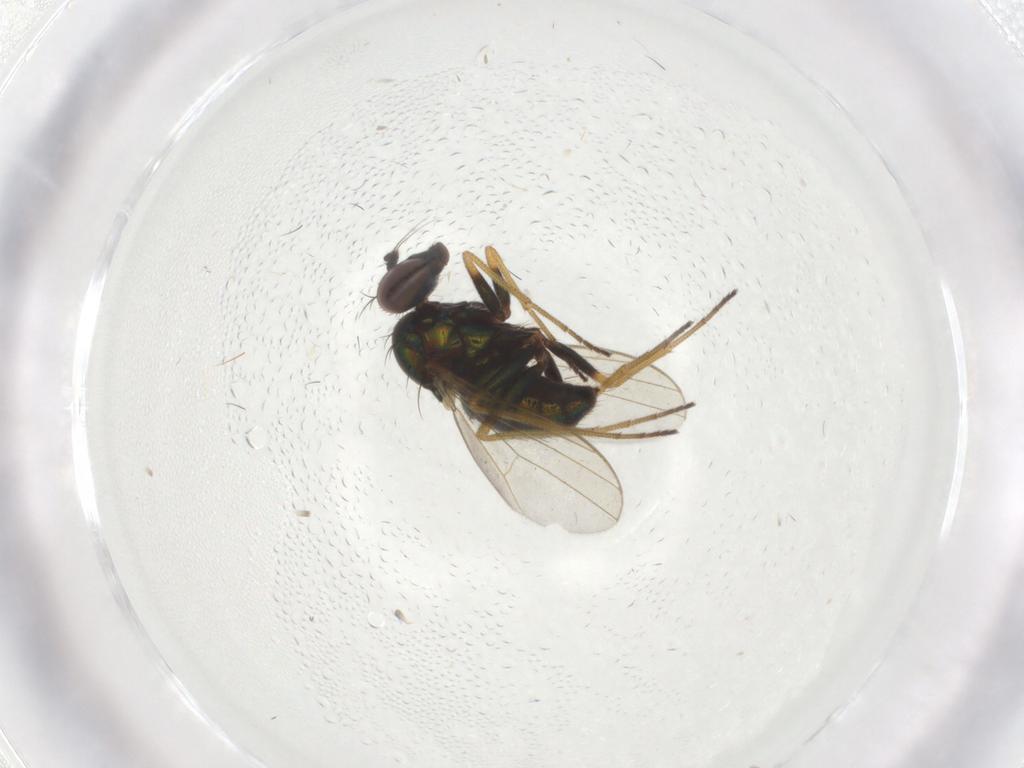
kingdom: Animalia
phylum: Arthropoda
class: Insecta
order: Diptera
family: Dolichopodidae
